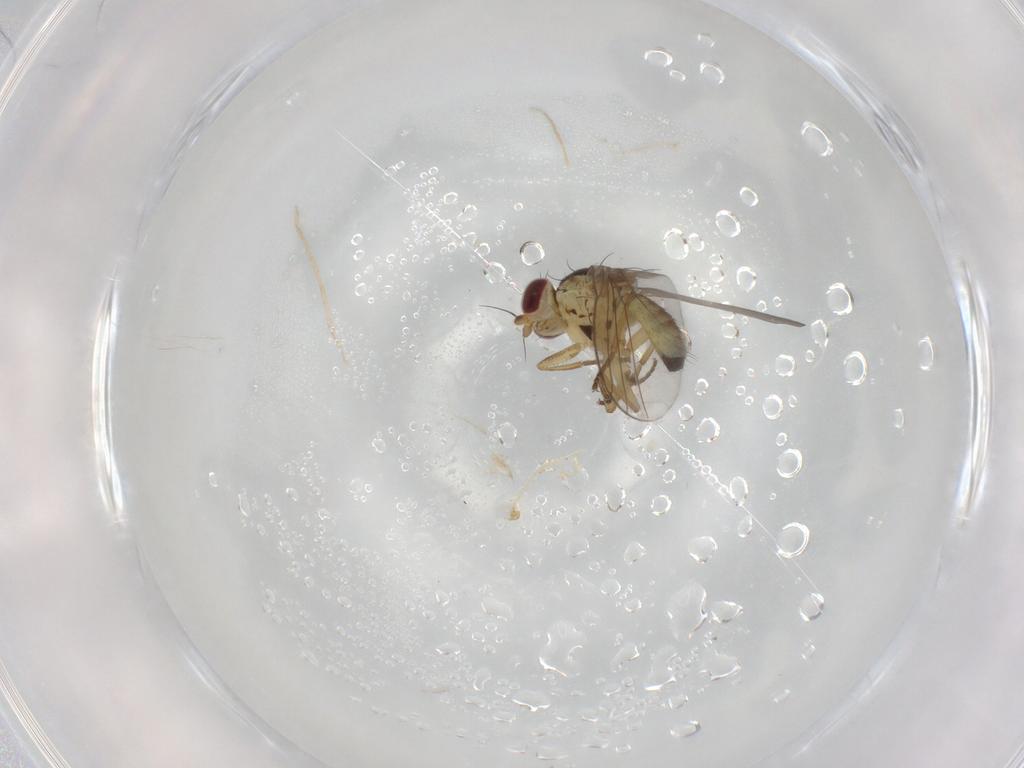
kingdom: Animalia
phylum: Arthropoda
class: Insecta
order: Diptera
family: Agromyzidae
